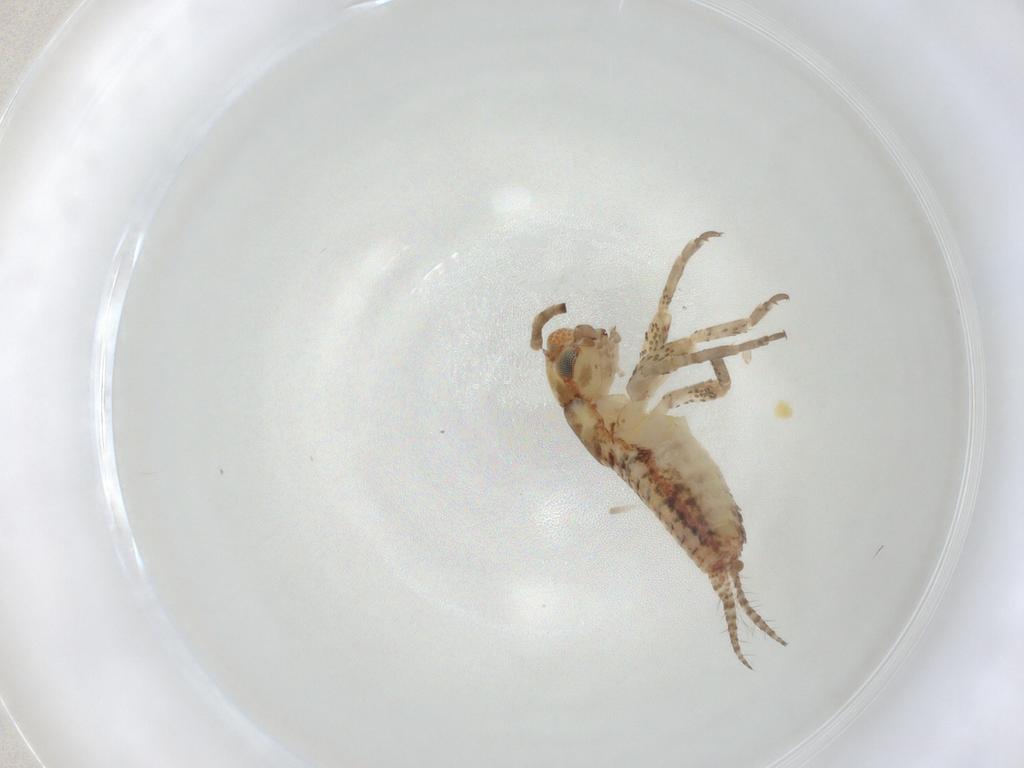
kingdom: Animalia
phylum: Arthropoda
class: Insecta
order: Orthoptera
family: Mogoplistidae
